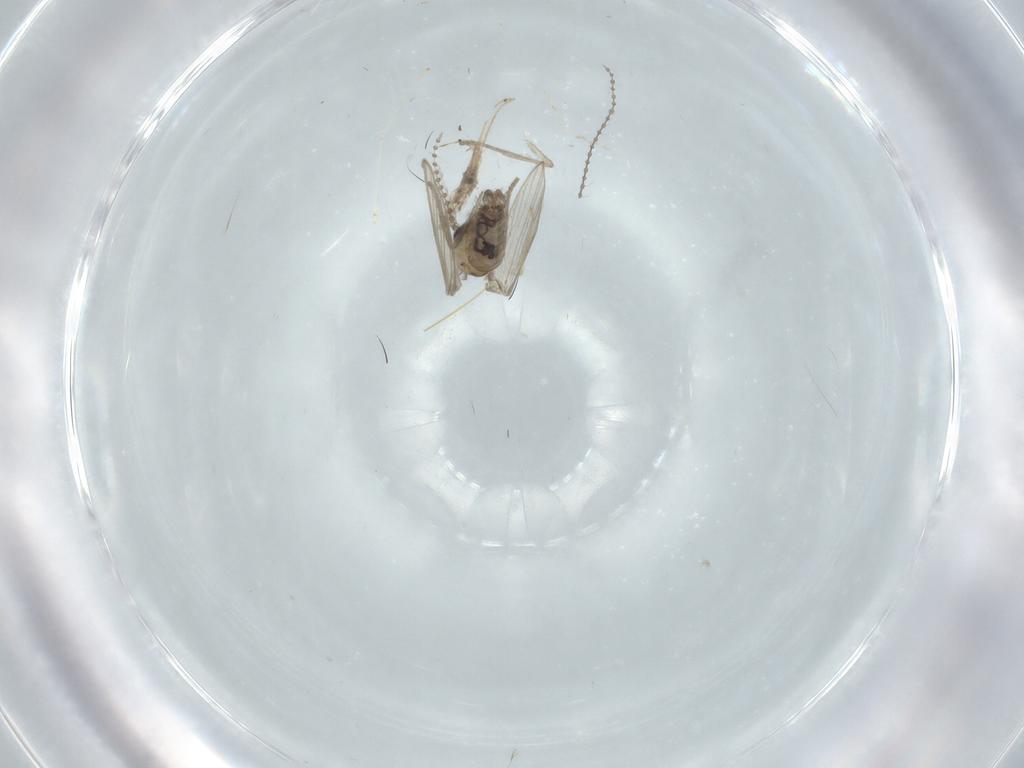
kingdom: Animalia
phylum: Arthropoda
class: Insecta
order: Diptera
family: Psychodidae
